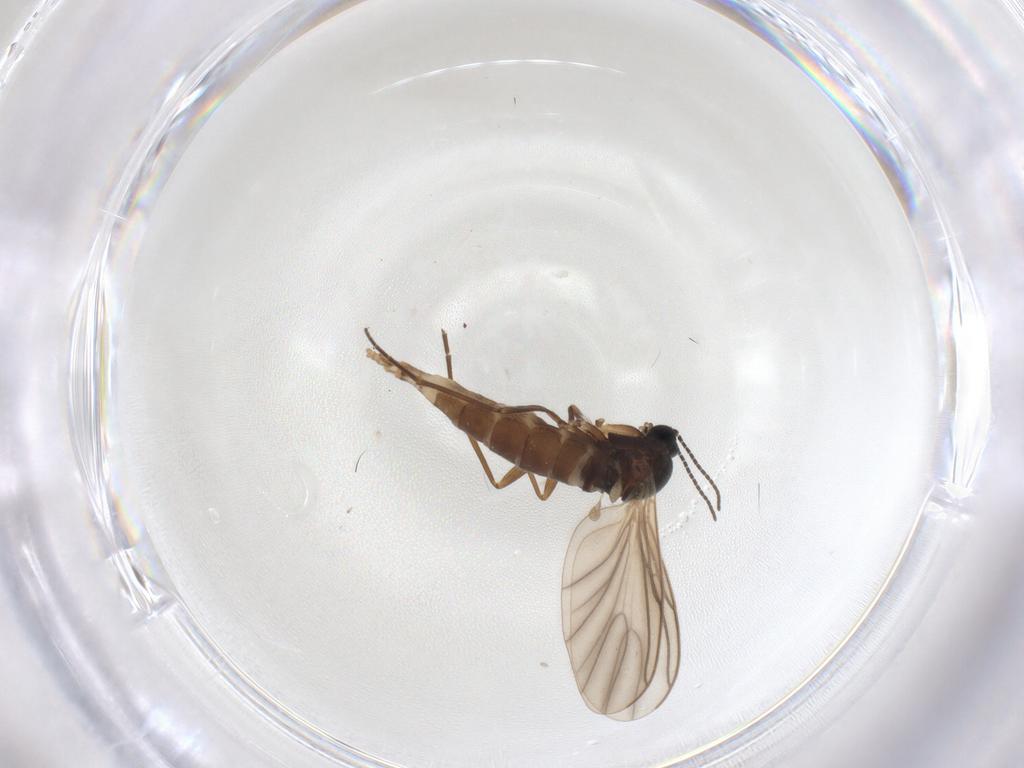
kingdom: Animalia
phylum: Arthropoda
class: Insecta
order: Diptera
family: Sciaridae
